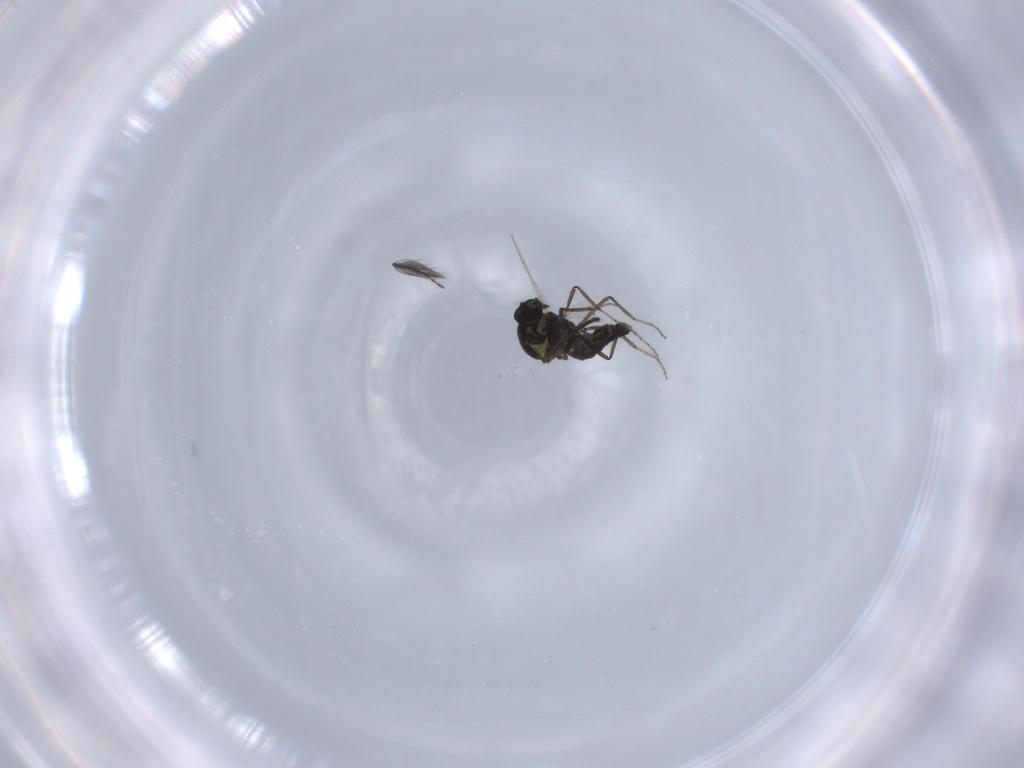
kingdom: Animalia
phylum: Arthropoda
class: Insecta
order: Diptera
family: Ceratopogonidae
